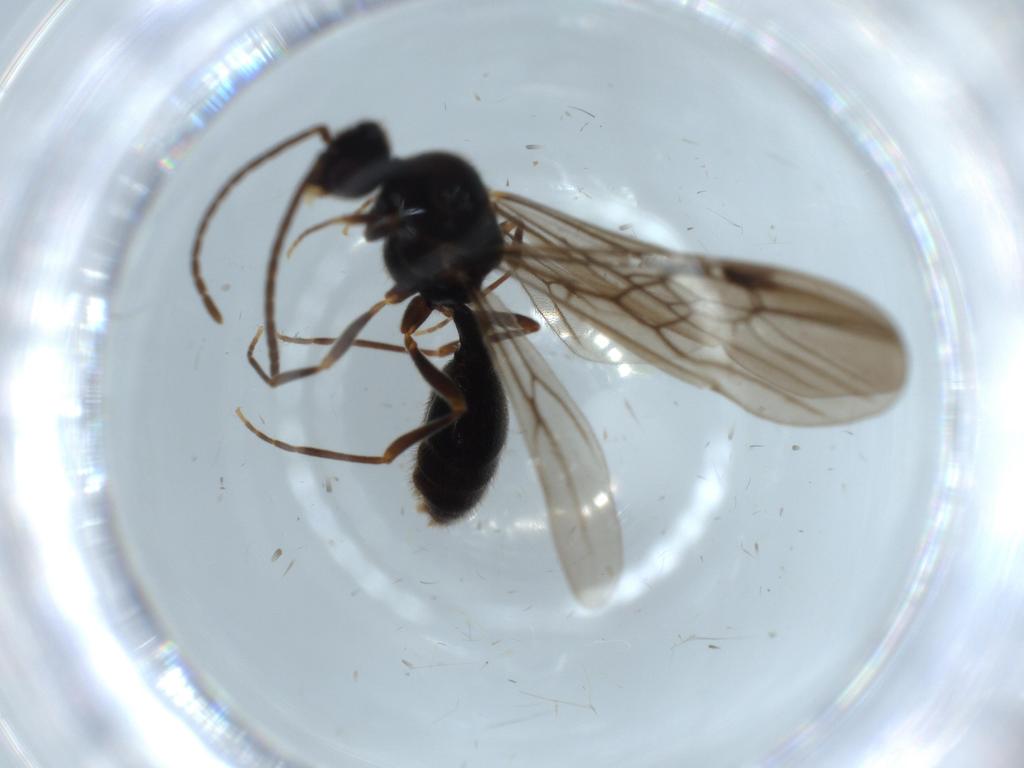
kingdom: Animalia
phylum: Arthropoda
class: Insecta
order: Hymenoptera
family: Formicidae
